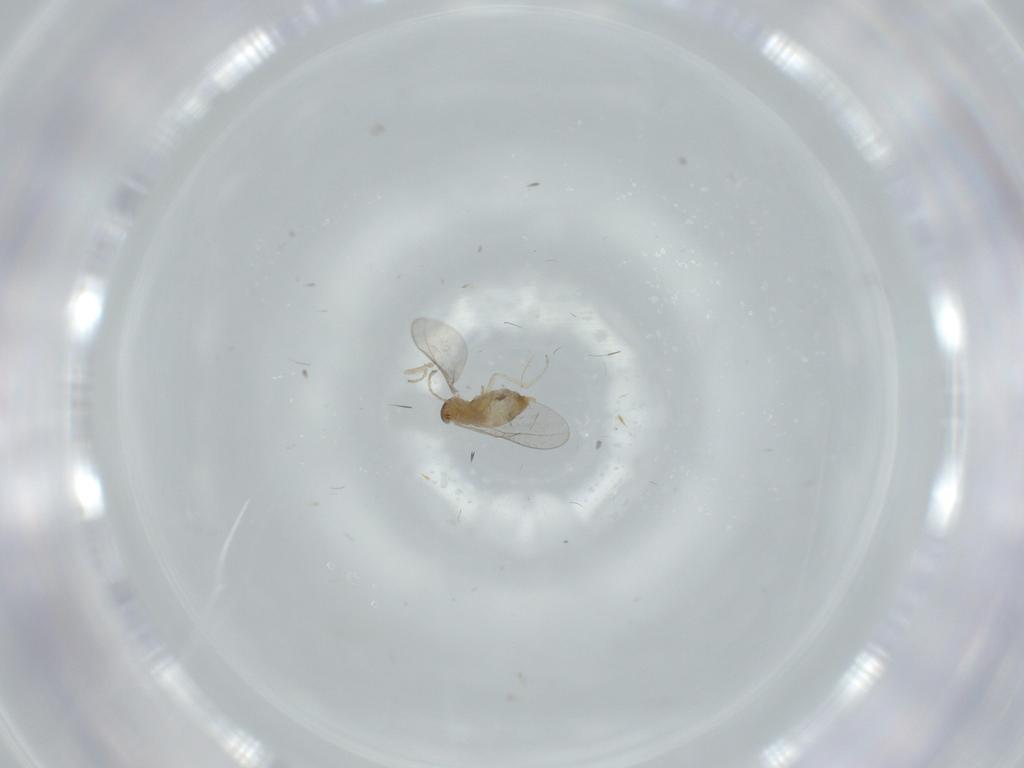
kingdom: Animalia
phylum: Arthropoda
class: Insecta
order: Diptera
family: Cecidomyiidae
